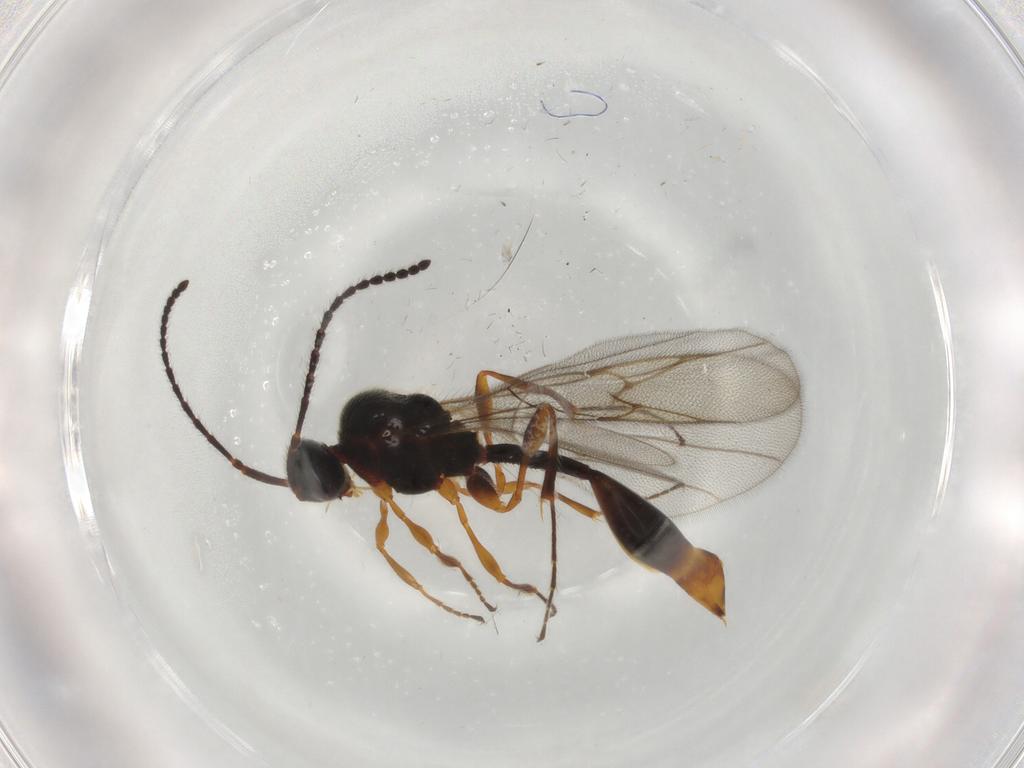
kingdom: Animalia
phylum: Arthropoda
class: Insecta
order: Hymenoptera
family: Diapriidae
